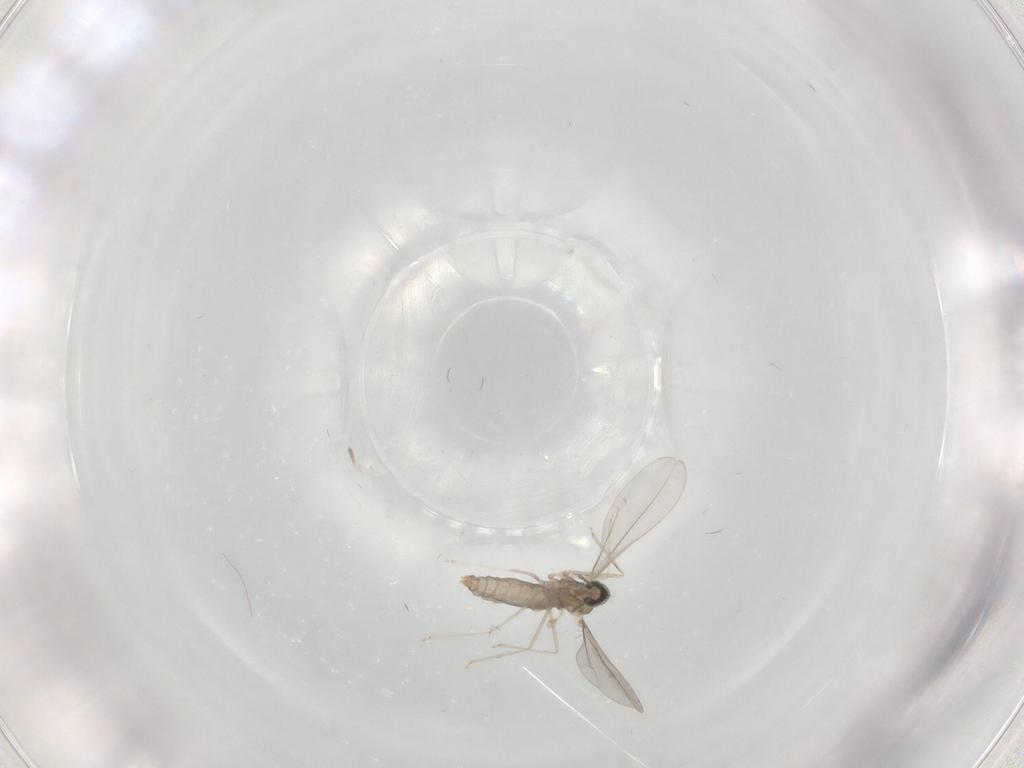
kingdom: Animalia
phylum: Arthropoda
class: Insecta
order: Diptera
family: Cecidomyiidae
